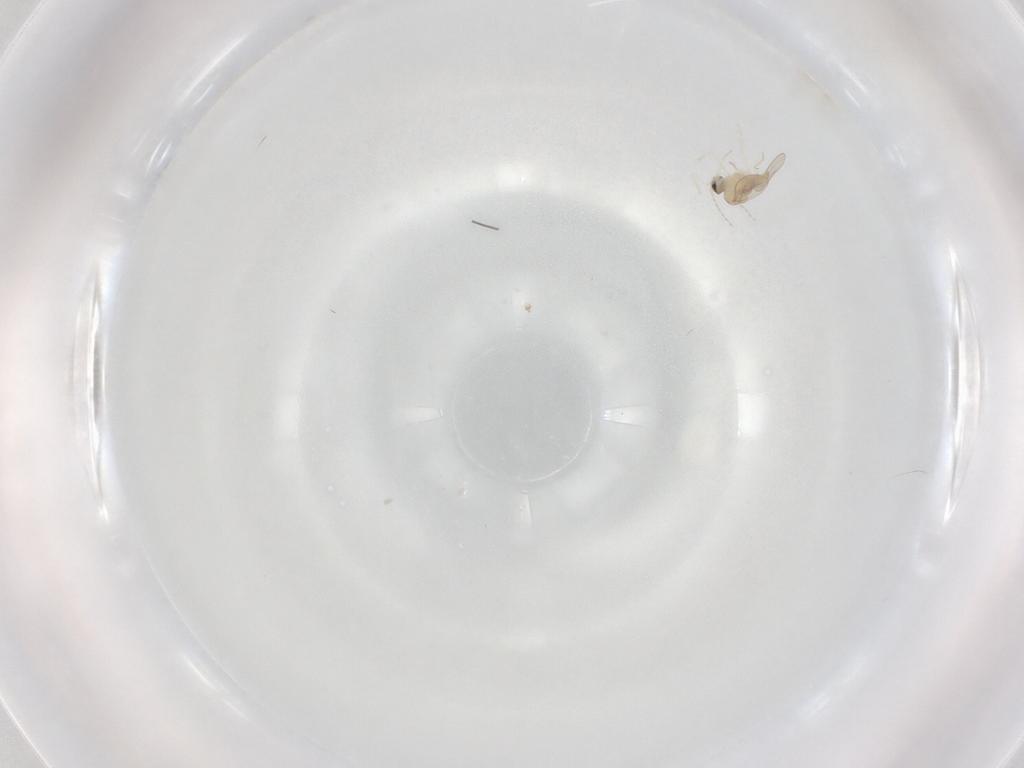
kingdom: Animalia
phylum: Arthropoda
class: Insecta
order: Diptera
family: Cecidomyiidae
